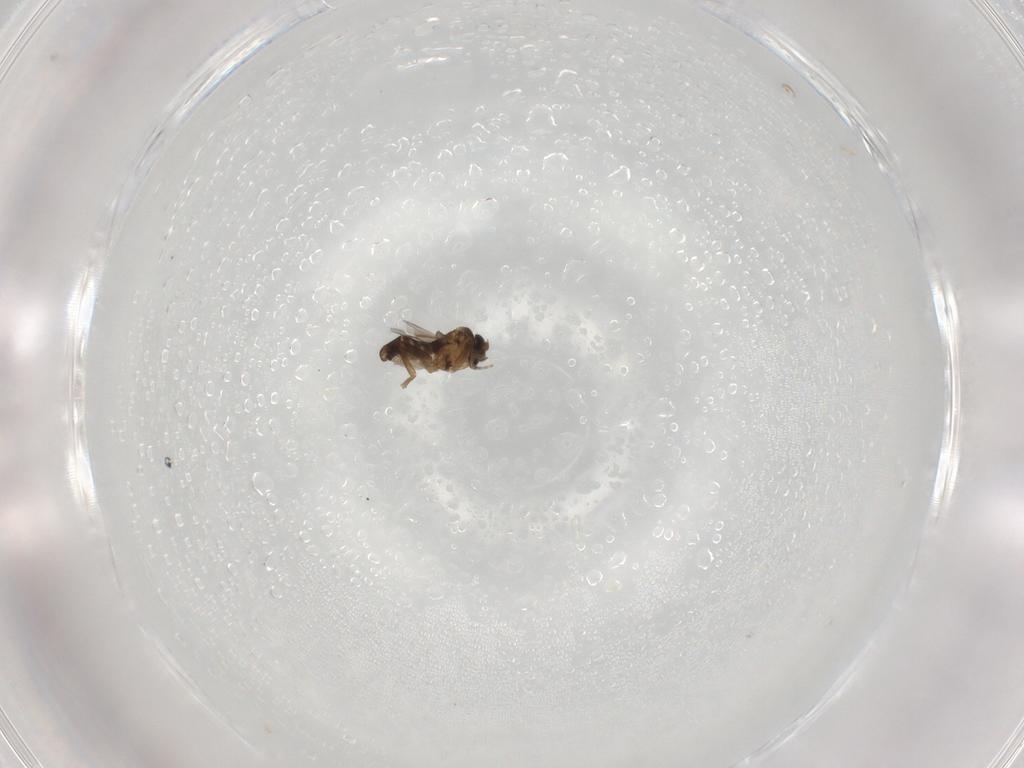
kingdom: Animalia
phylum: Arthropoda
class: Insecta
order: Diptera
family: Phoridae
